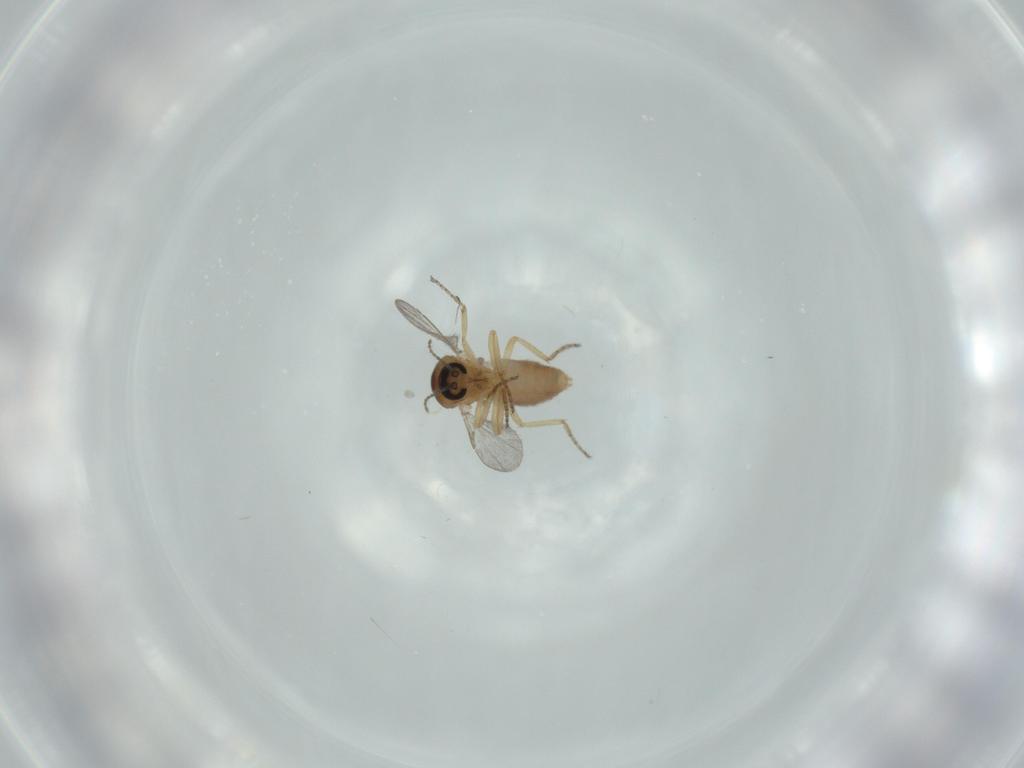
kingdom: Animalia
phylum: Arthropoda
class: Insecta
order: Diptera
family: Ceratopogonidae
